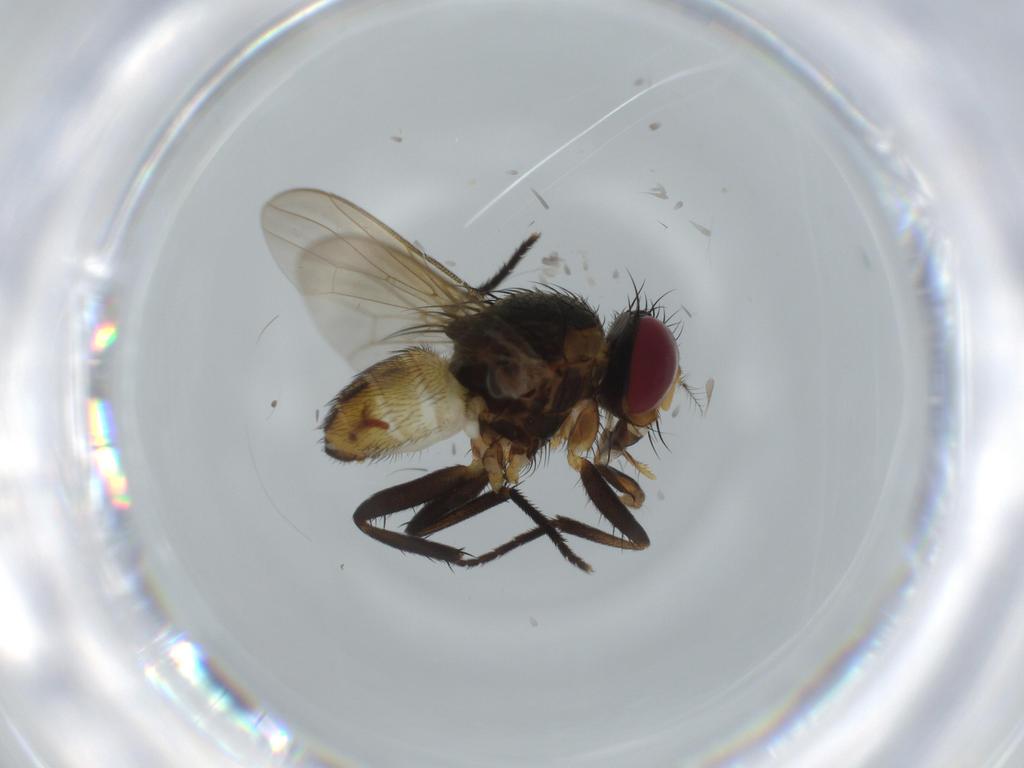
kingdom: Animalia
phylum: Arthropoda
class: Insecta
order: Diptera
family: Anthomyiidae
